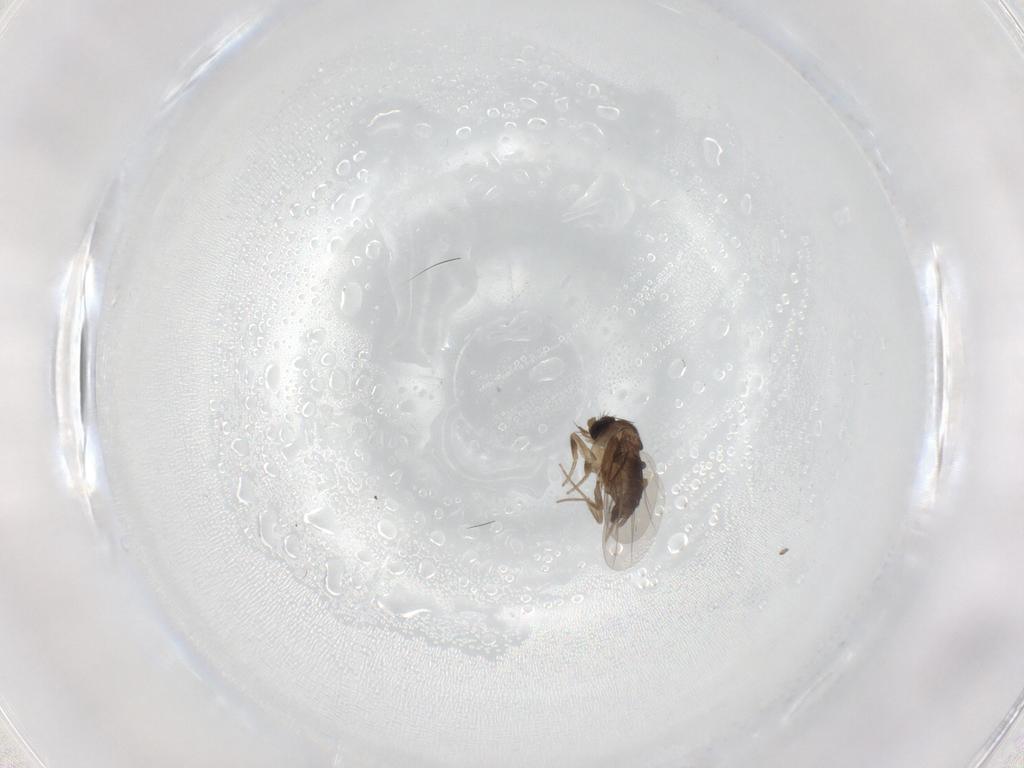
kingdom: Animalia
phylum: Arthropoda
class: Insecta
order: Diptera
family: Phoridae
